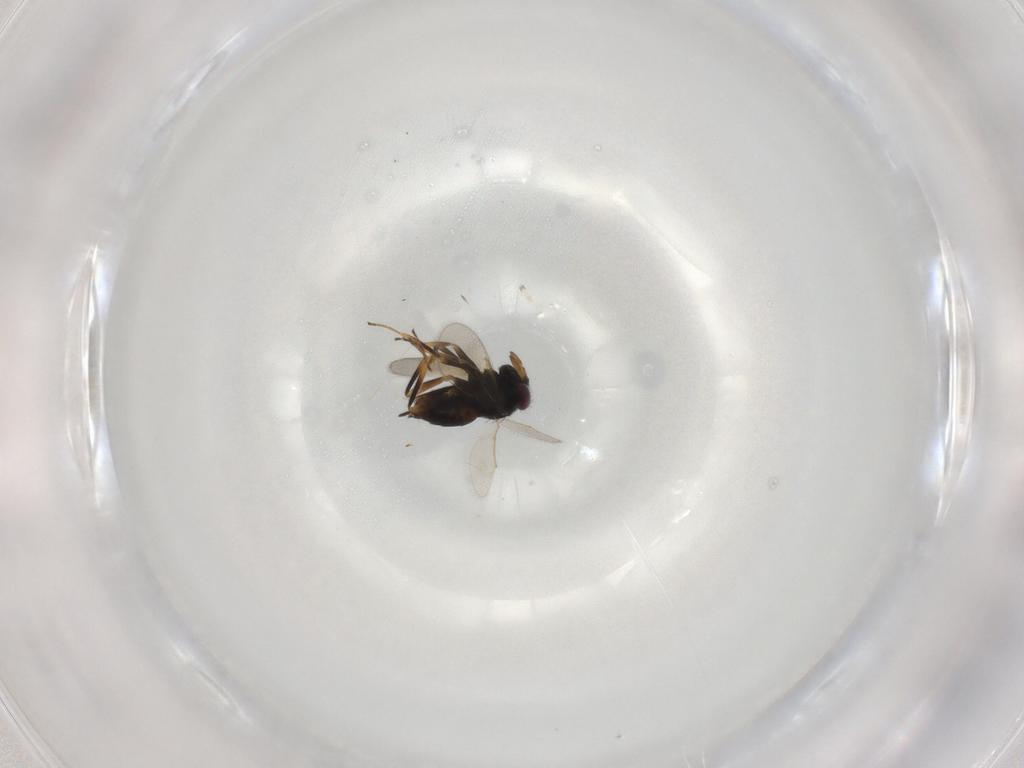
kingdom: Animalia
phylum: Arthropoda
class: Insecta
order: Hymenoptera
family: Aphelinidae
